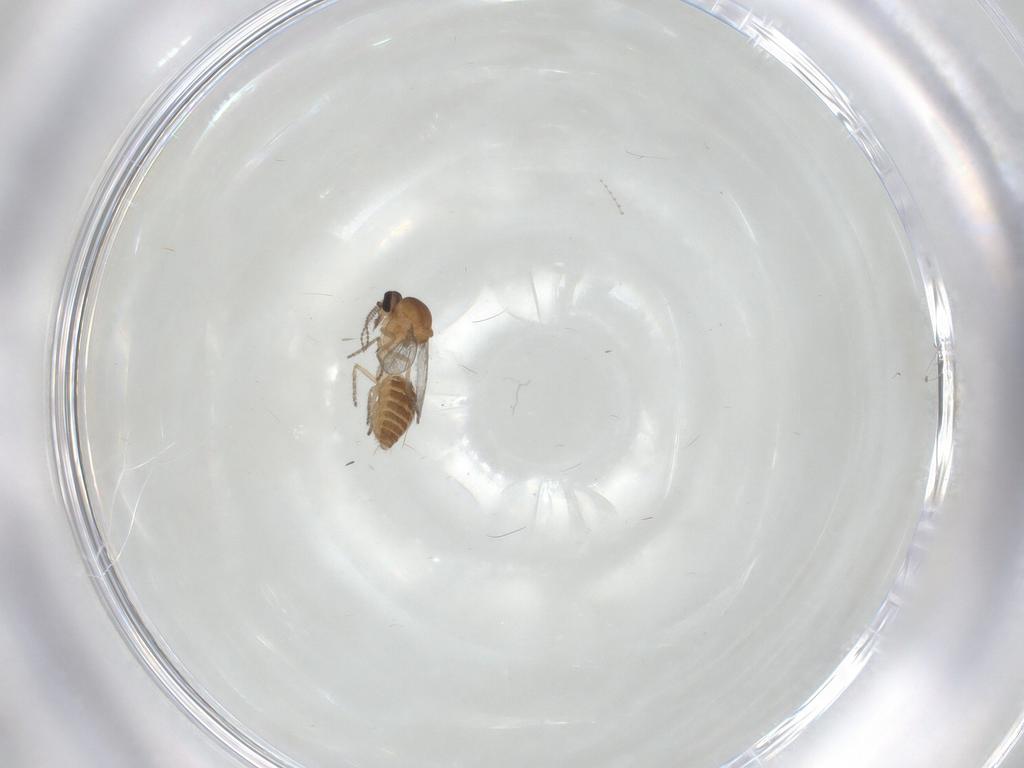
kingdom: Animalia
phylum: Arthropoda
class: Insecta
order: Diptera
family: Ceratopogonidae
